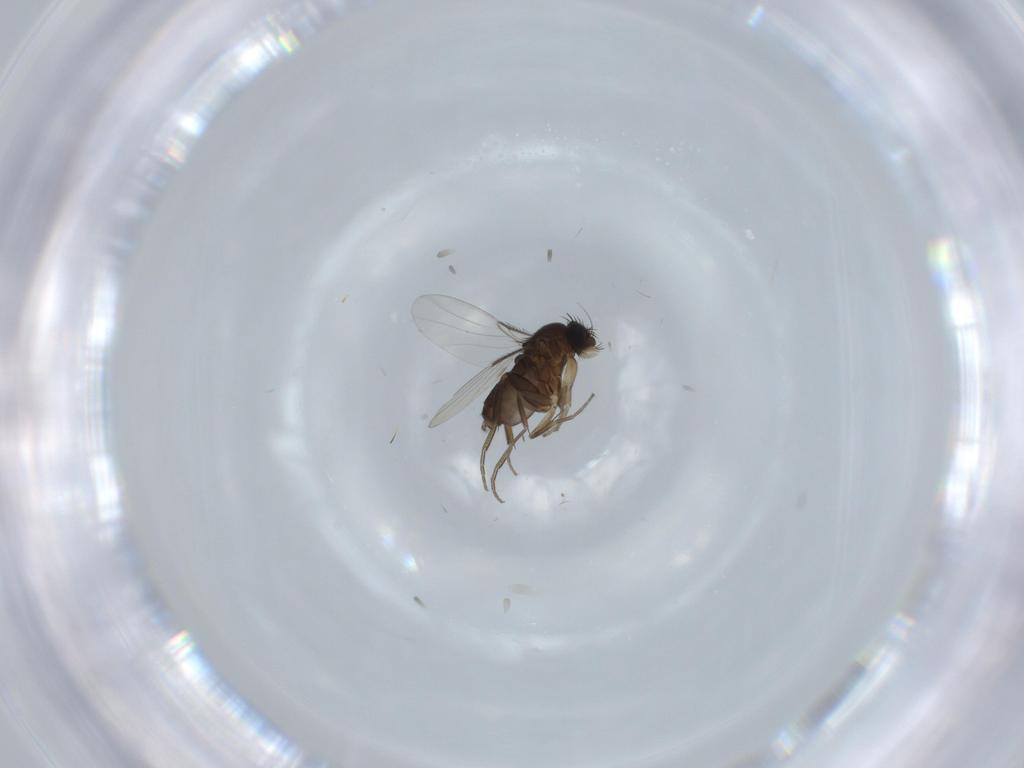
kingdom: Animalia
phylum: Arthropoda
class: Insecta
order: Diptera
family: Phoridae
